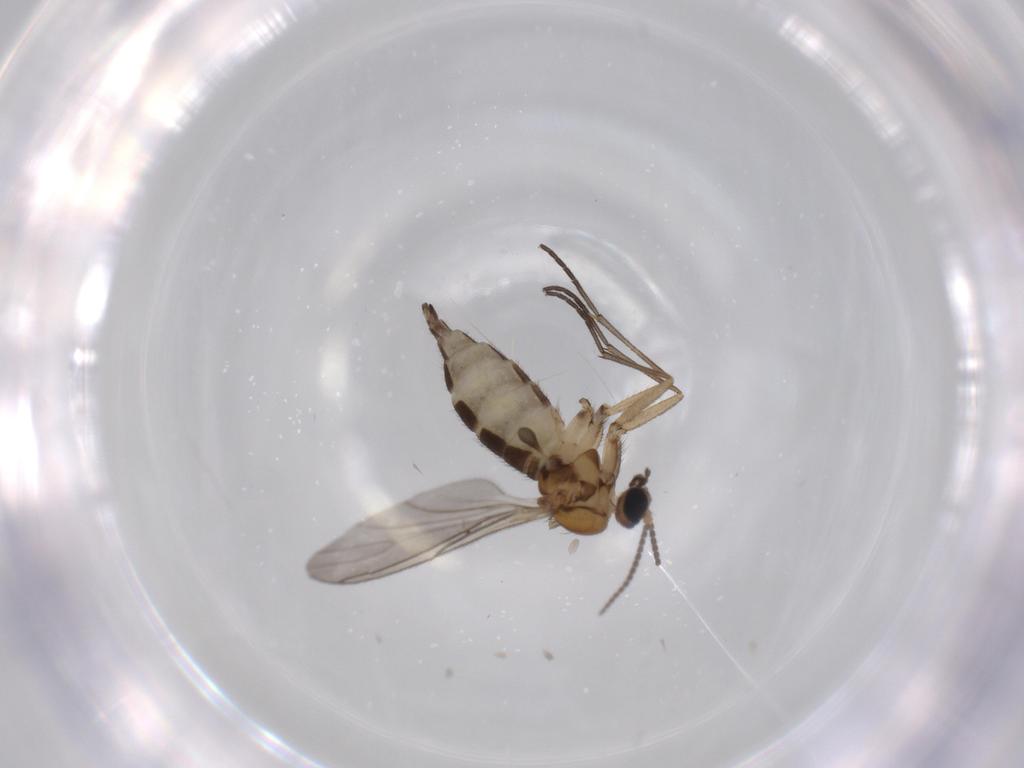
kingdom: Animalia
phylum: Arthropoda
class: Insecta
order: Diptera
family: Sciaridae
